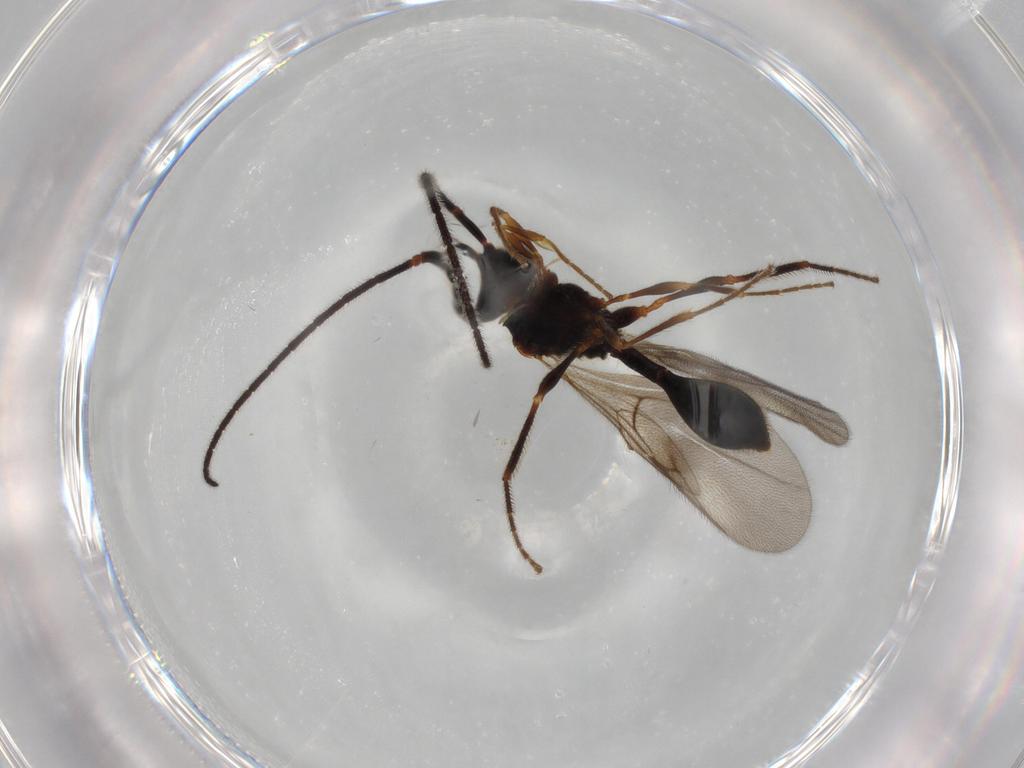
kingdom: Animalia
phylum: Arthropoda
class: Insecta
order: Hymenoptera
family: Diapriidae
